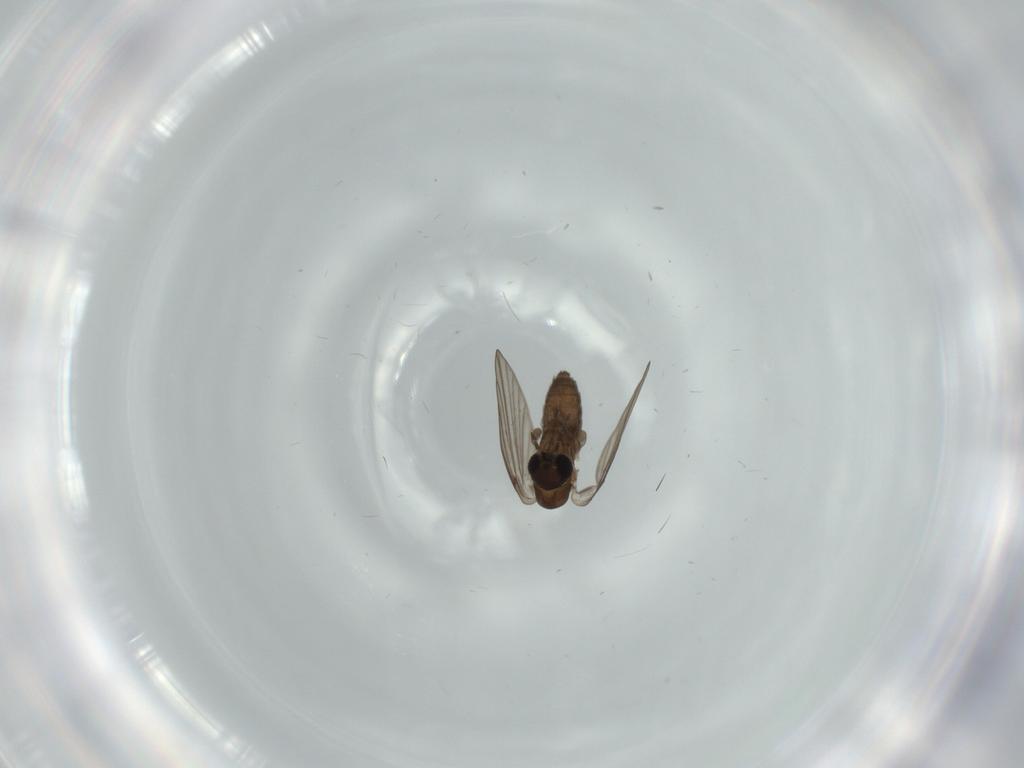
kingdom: Animalia
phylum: Arthropoda
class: Insecta
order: Diptera
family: Psychodidae
